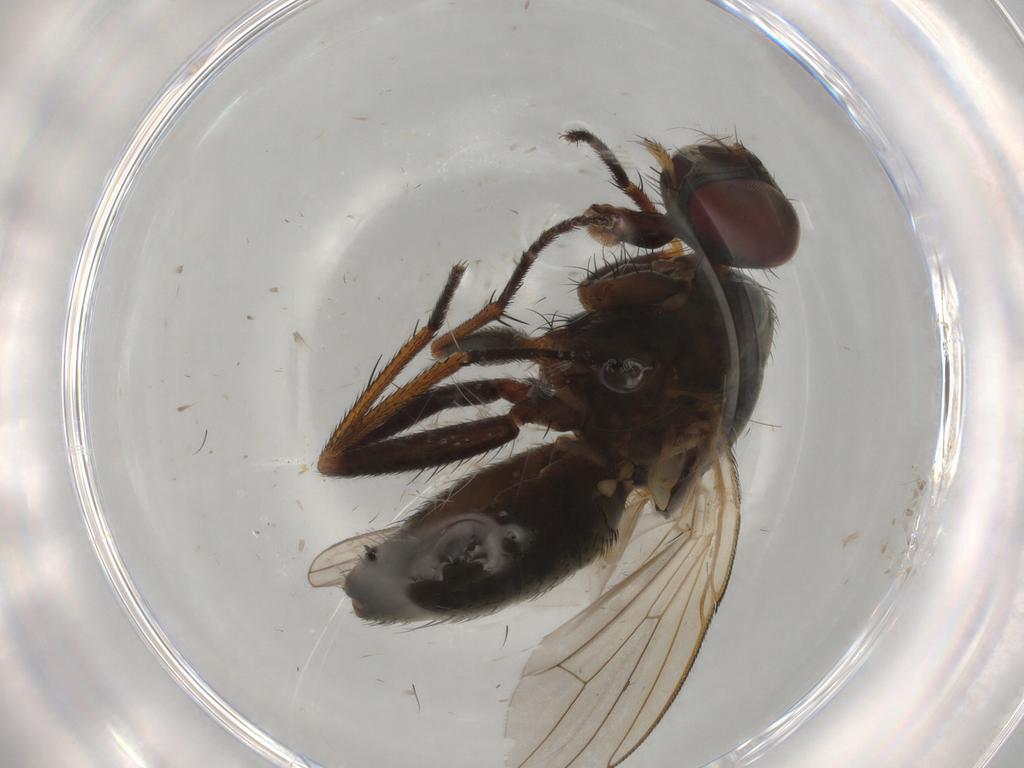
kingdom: Animalia
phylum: Arthropoda
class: Insecta
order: Diptera
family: Muscidae
